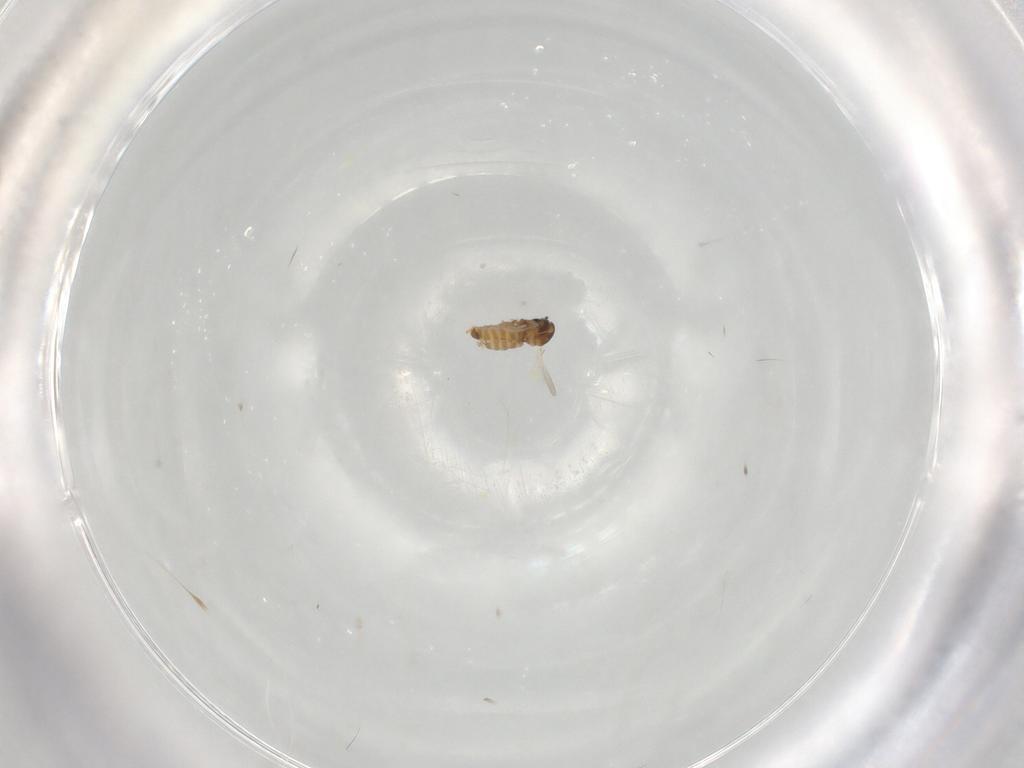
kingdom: Animalia
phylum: Arthropoda
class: Insecta
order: Diptera
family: Cecidomyiidae
